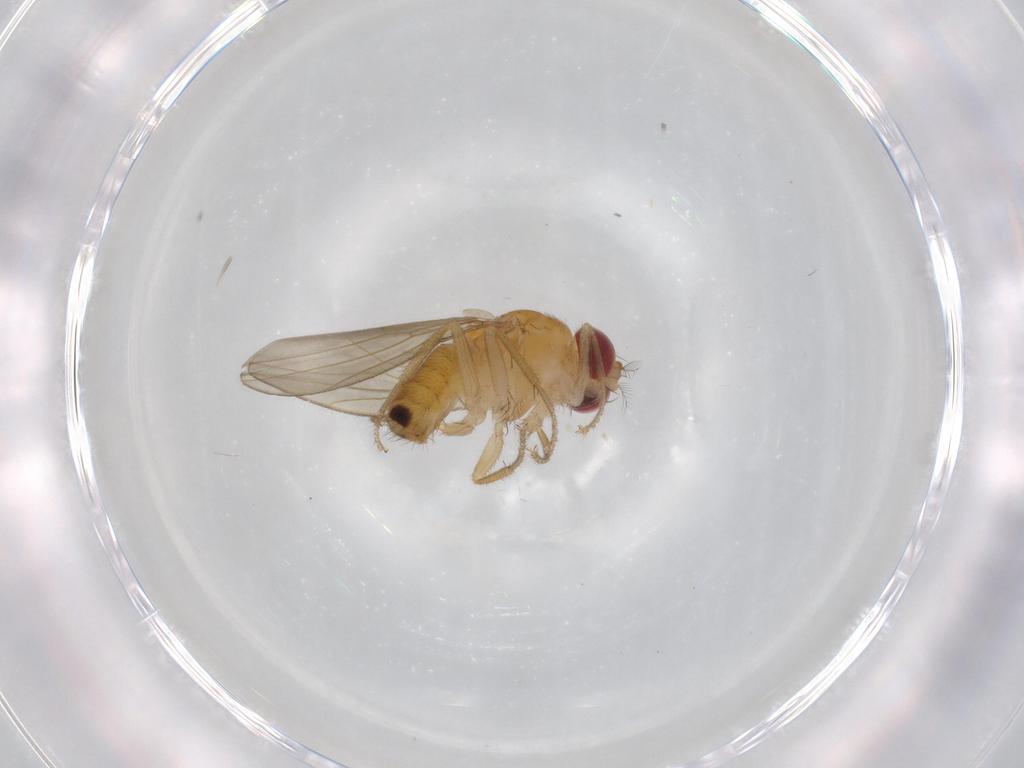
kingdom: Animalia
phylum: Arthropoda
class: Insecta
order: Diptera
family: Drosophilidae
